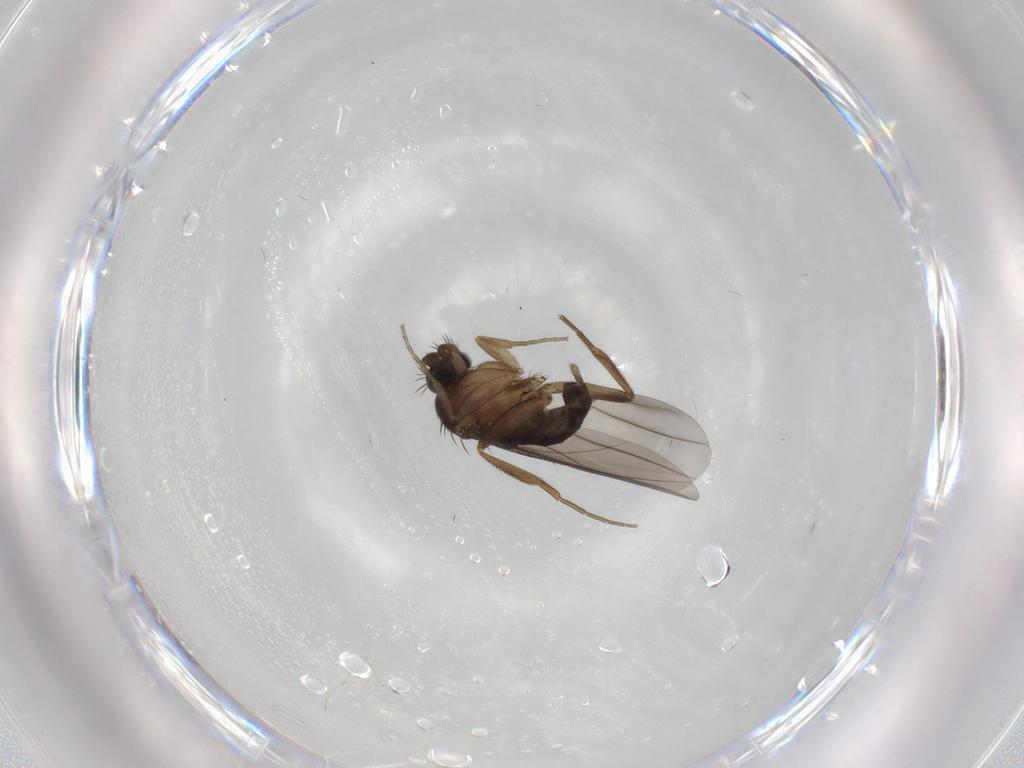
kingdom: Animalia
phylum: Arthropoda
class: Insecta
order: Diptera
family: Phoridae
